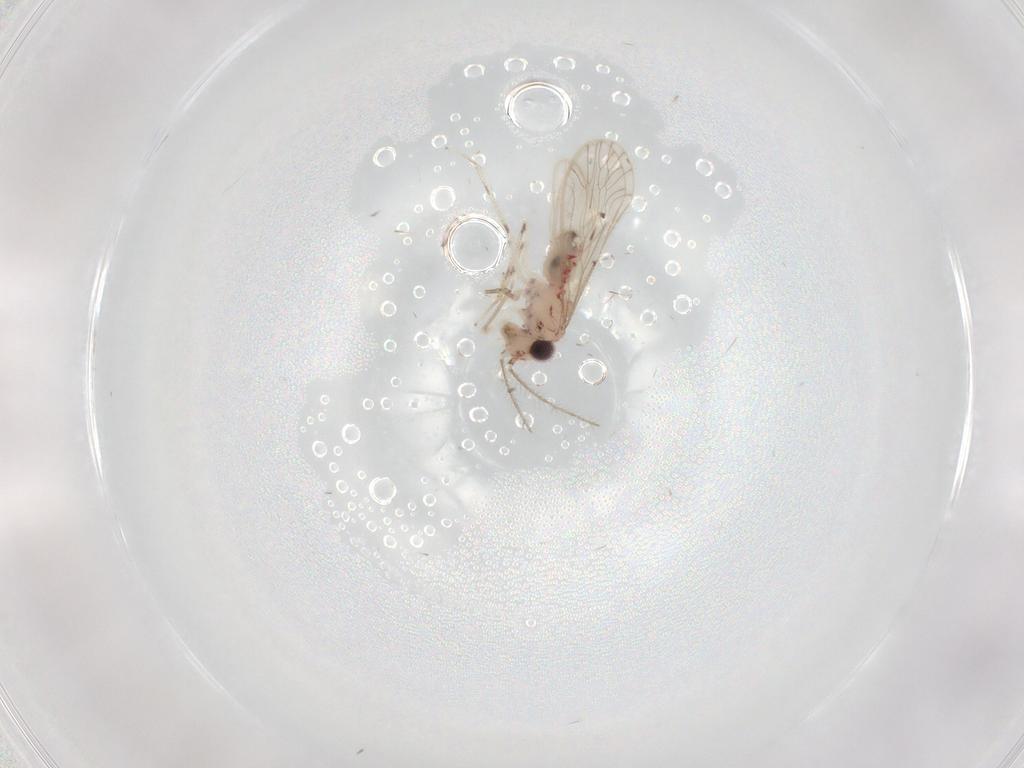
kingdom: Animalia
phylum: Arthropoda
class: Insecta
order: Psocodea
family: Caeciliusidae
